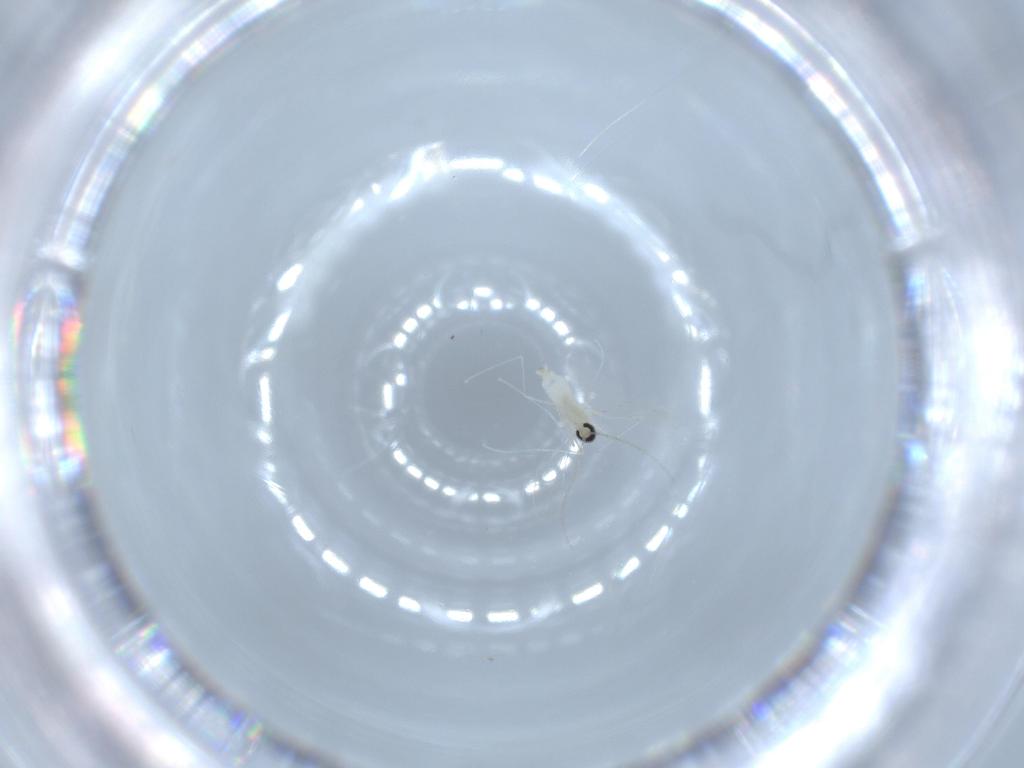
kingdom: Animalia
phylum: Arthropoda
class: Insecta
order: Diptera
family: Cecidomyiidae
